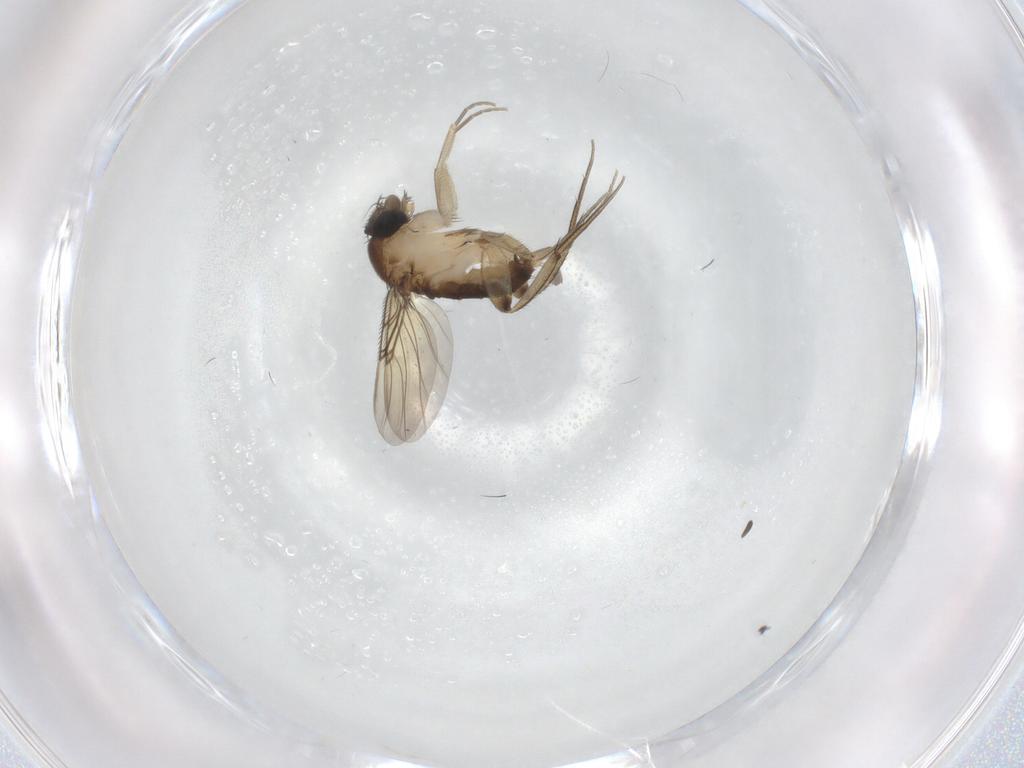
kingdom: Animalia
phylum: Arthropoda
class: Insecta
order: Diptera
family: Phoridae
